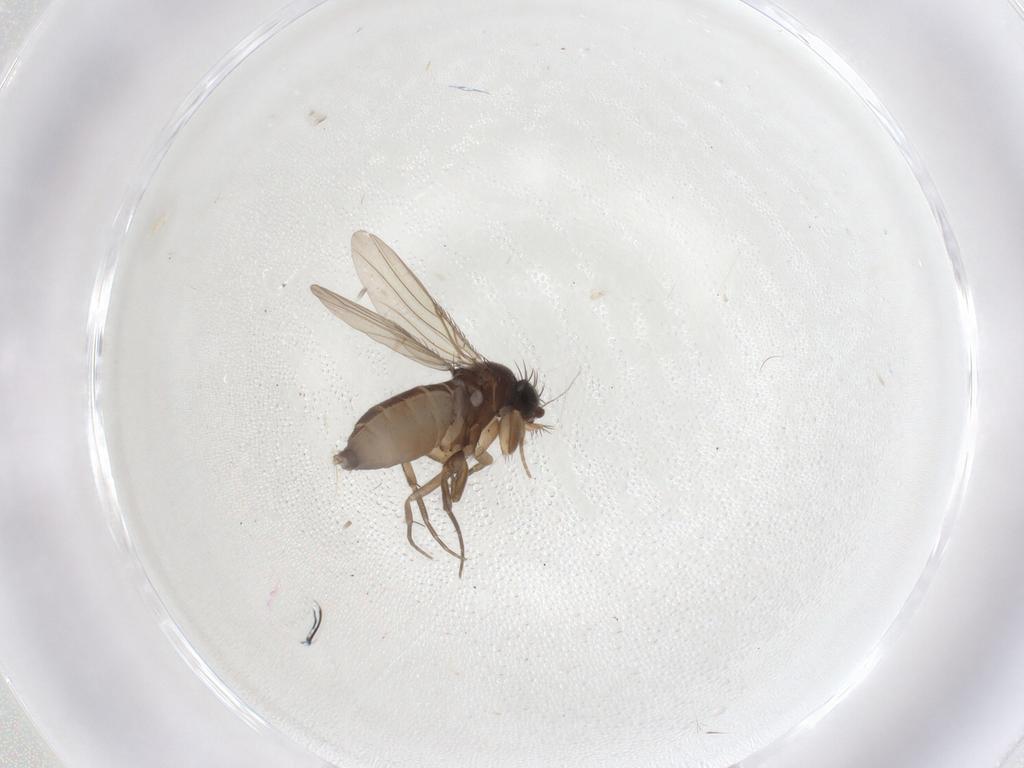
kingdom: Animalia
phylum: Arthropoda
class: Insecta
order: Diptera
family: Phoridae
